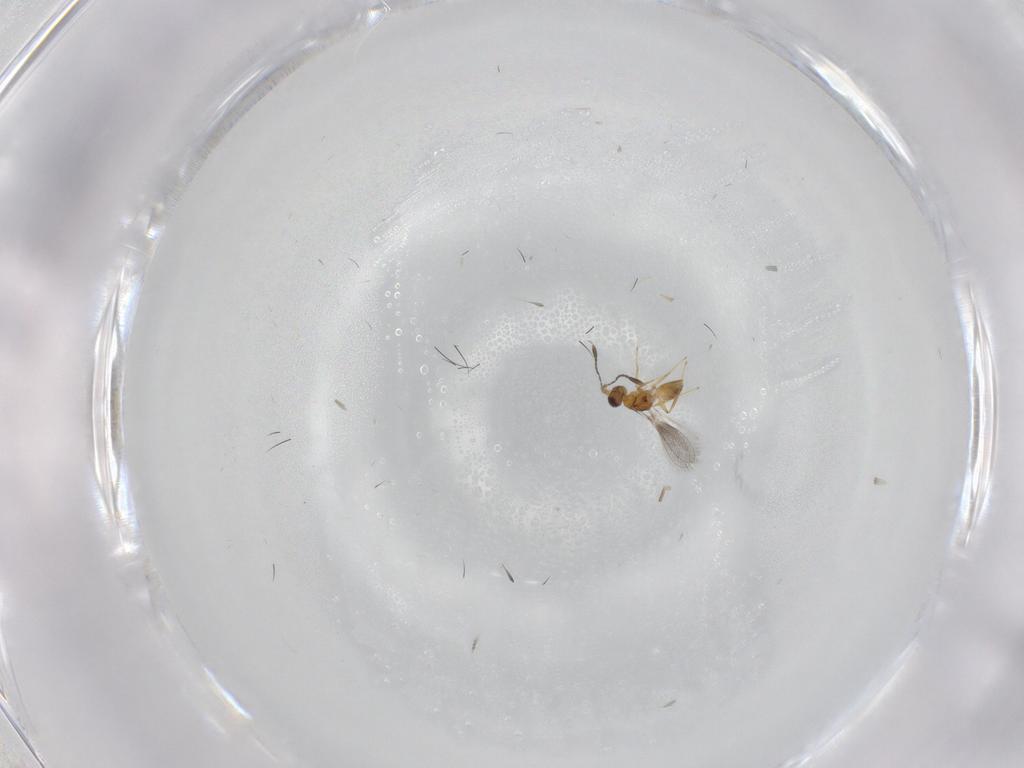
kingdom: Animalia
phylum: Arthropoda
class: Insecta
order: Hymenoptera
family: Mymaridae
